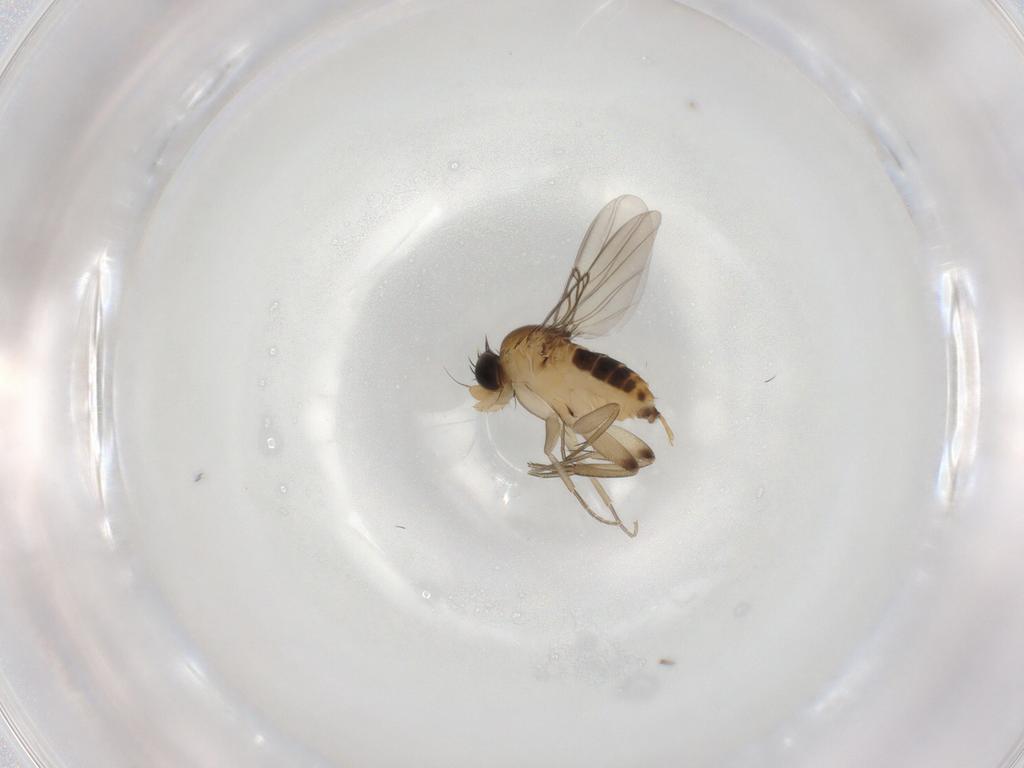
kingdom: Animalia
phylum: Arthropoda
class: Insecta
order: Diptera
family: Phoridae
